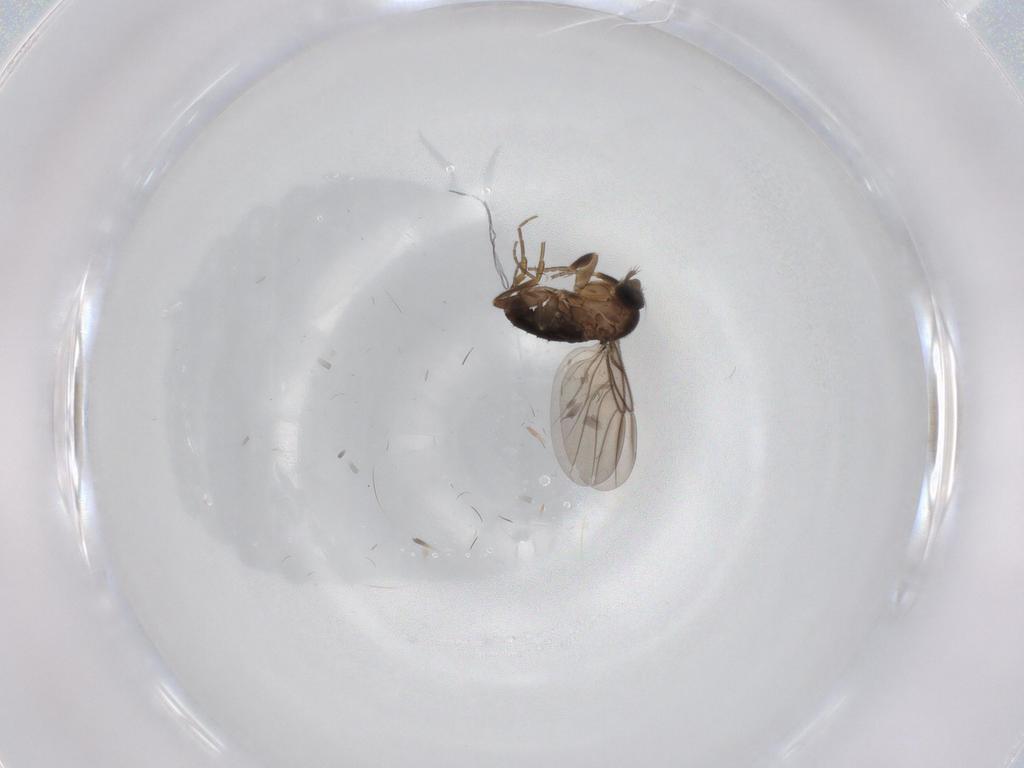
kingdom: Animalia
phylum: Arthropoda
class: Insecta
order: Diptera
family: Phoridae
